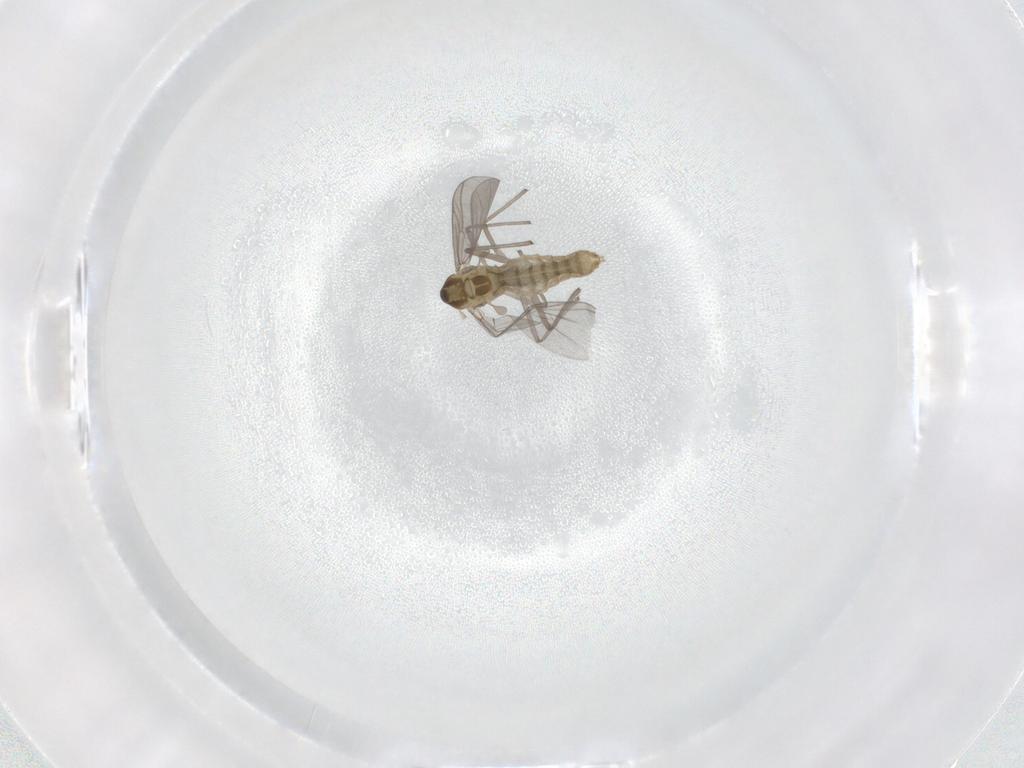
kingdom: Animalia
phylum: Arthropoda
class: Insecta
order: Diptera
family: Chironomidae
